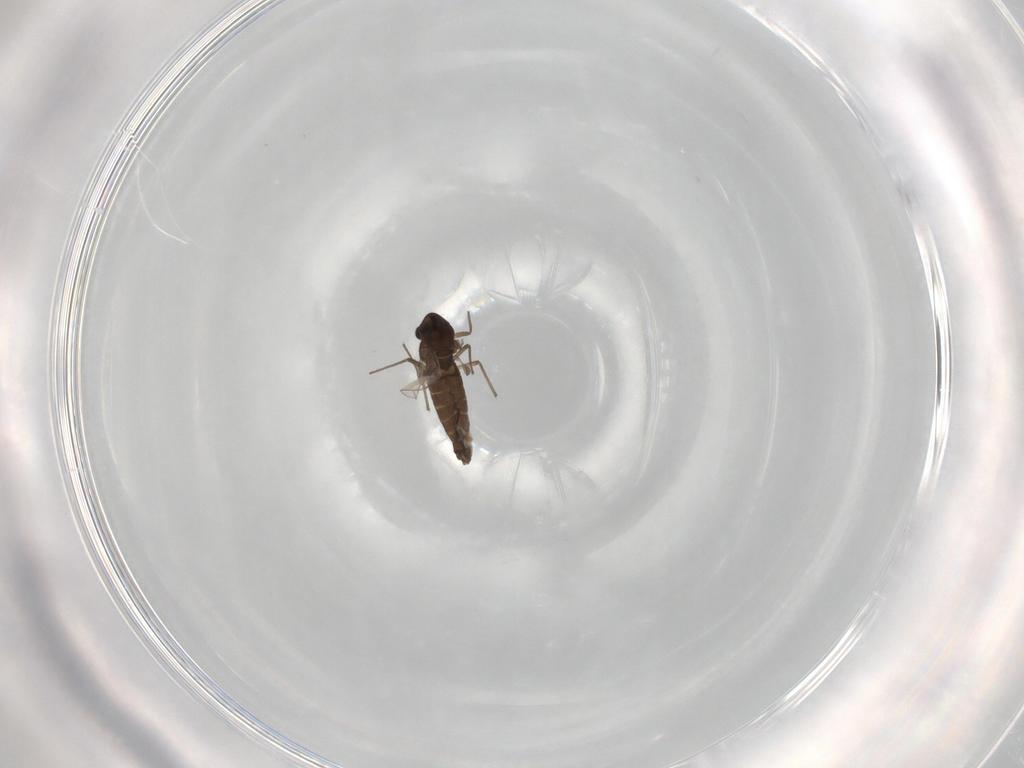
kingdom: Animalia
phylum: Arthropoda
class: Insecta
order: Diptera
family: Chironomidae
